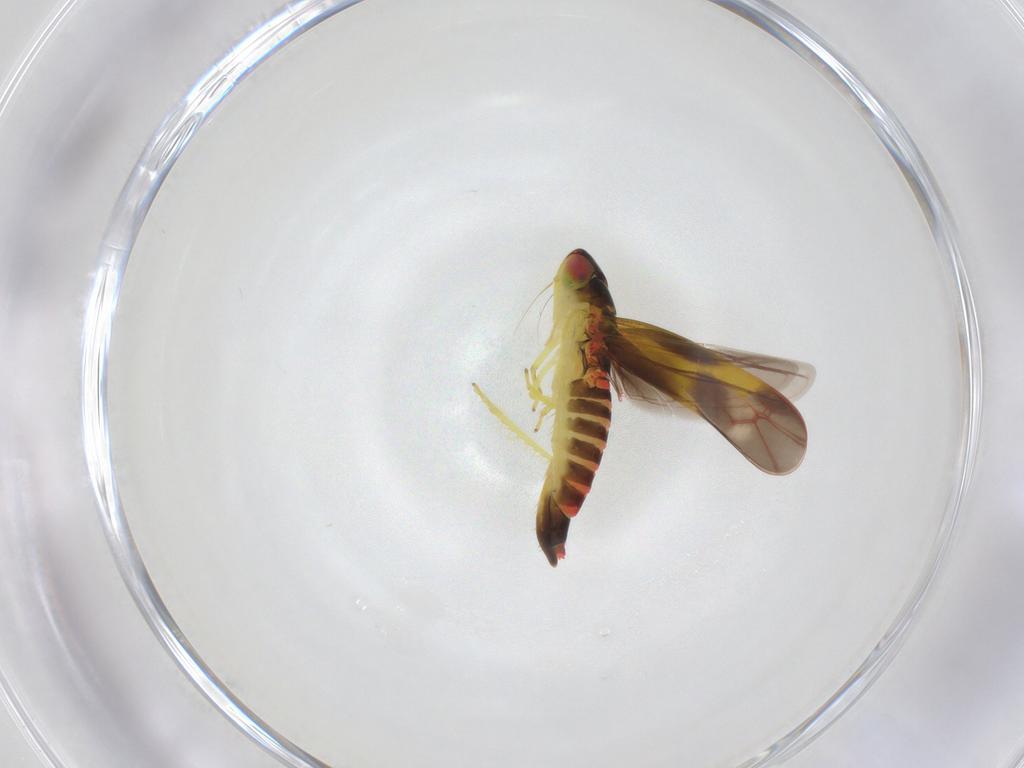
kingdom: Animalia
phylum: Arthropoda
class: Insecta
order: Hemiptera
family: Cicadellidae
